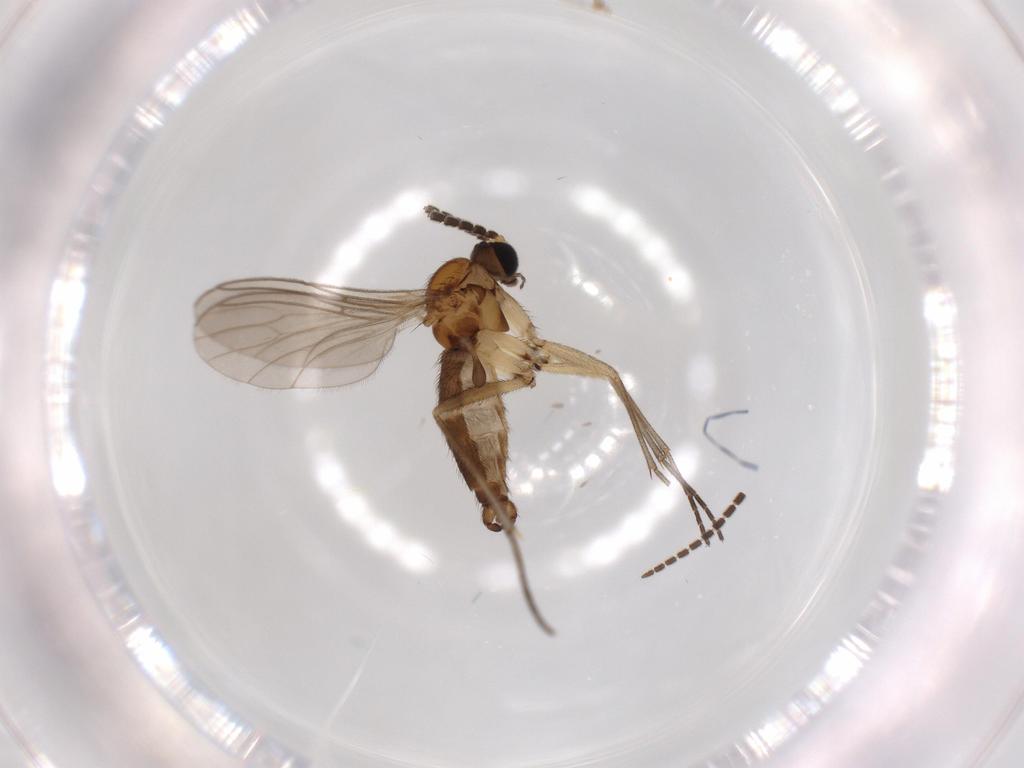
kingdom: Animalia
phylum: Arthropoda
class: Insecta
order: Diptera
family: Sciaridae
